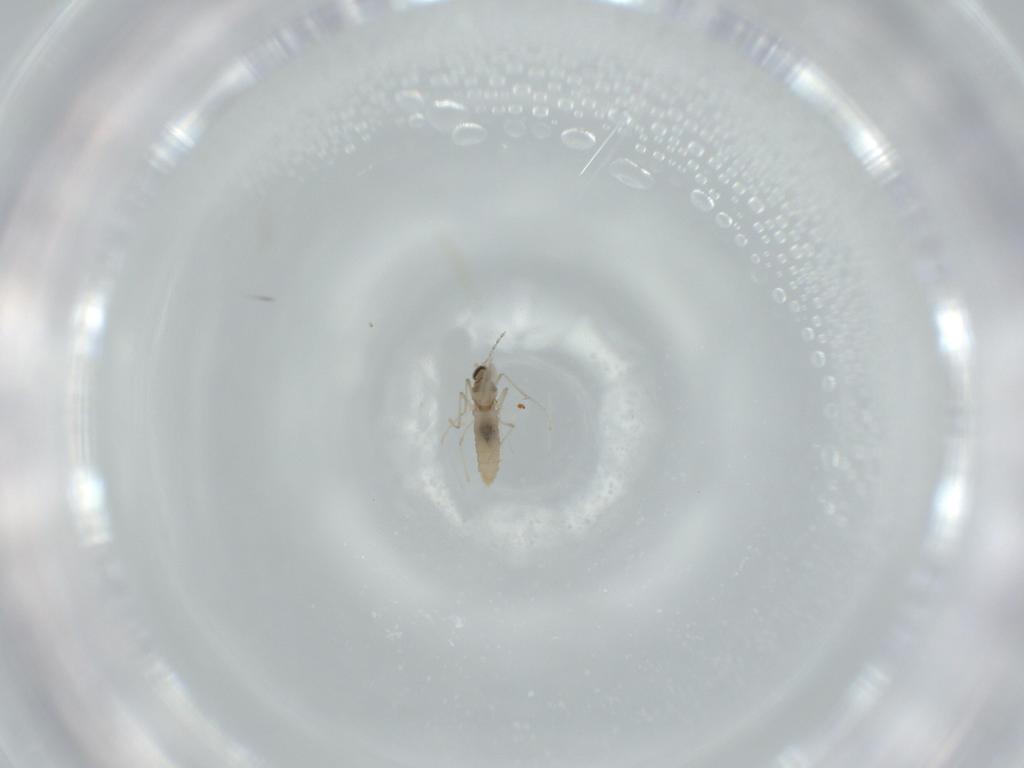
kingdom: Animalia
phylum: Arthropoda
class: Insecta
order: Diptera
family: Cecidomyiidae
